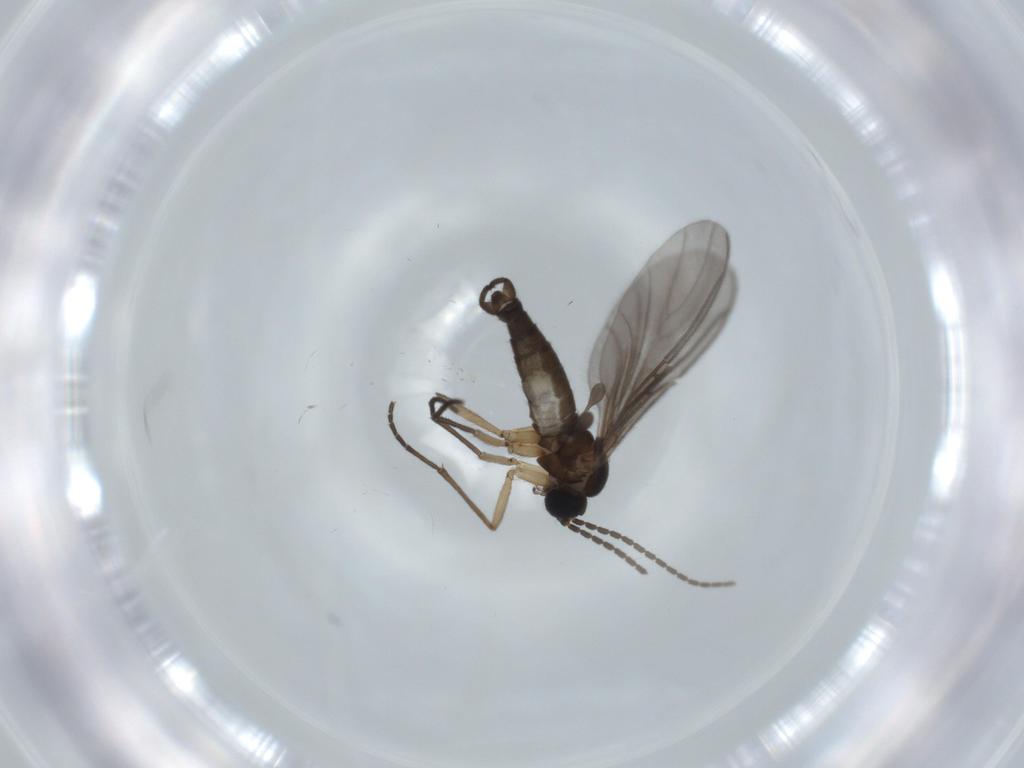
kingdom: Animalia
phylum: Arthropoda
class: Insecta
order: Diptera
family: Sciaridae
